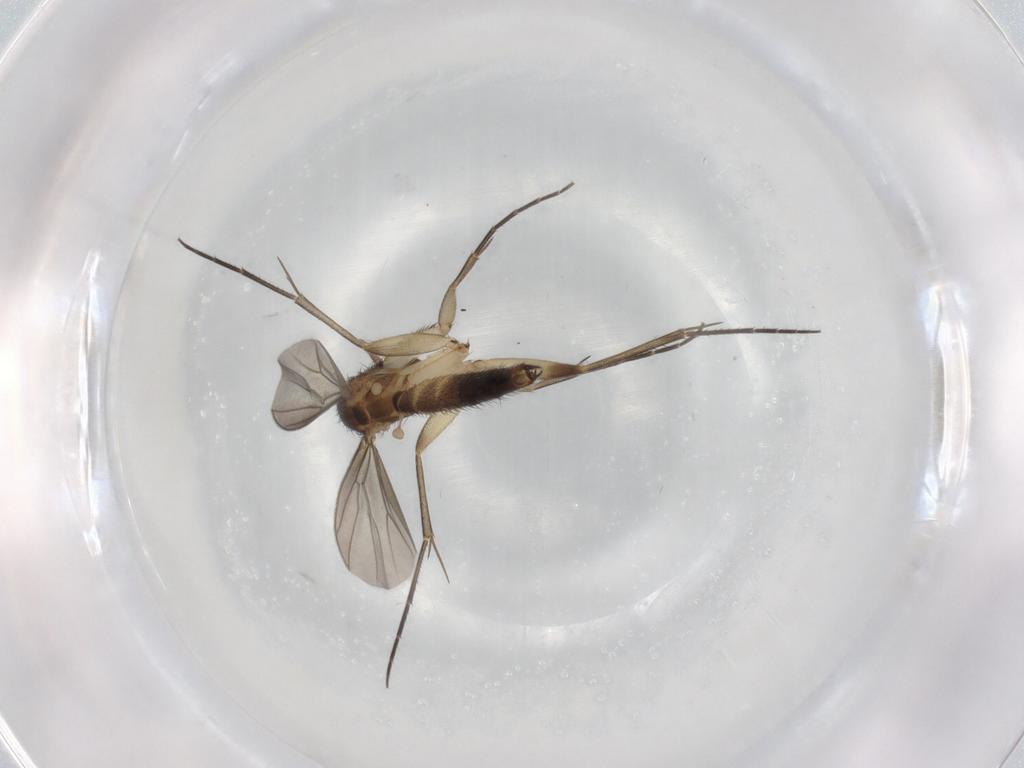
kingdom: Animalia
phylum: Arthropoda
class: Insecta
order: Diptera
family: Mycetophilidae
